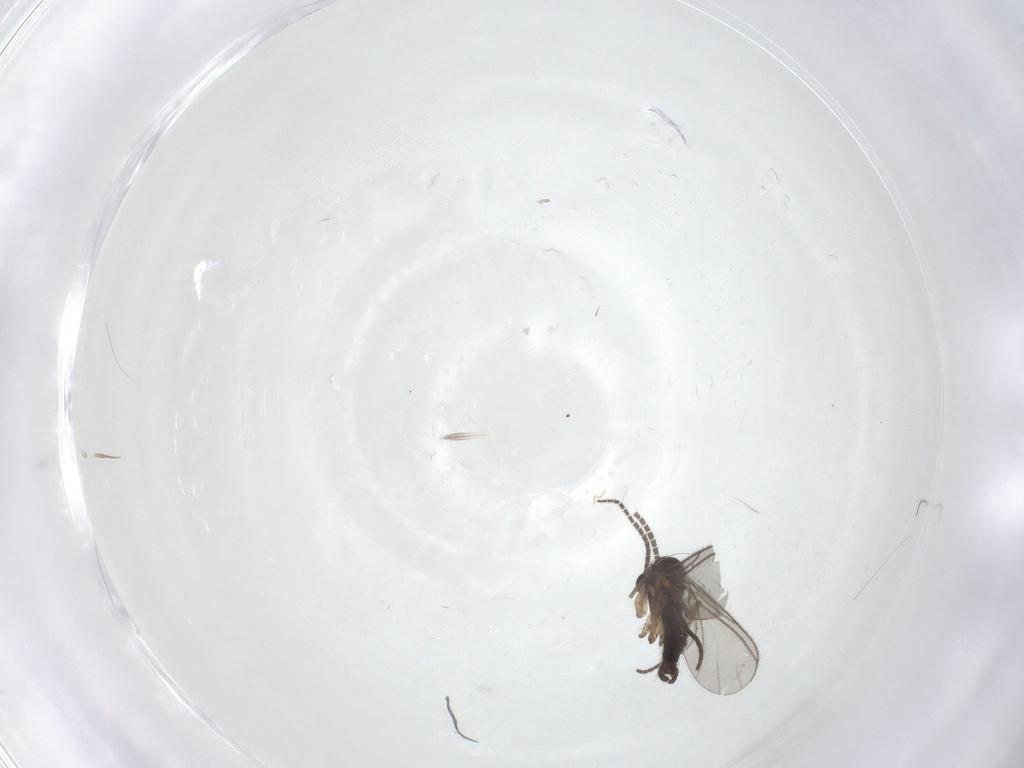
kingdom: Animalia
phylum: Arthropoda
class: Insecta
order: Diptera
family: Sciaridae
